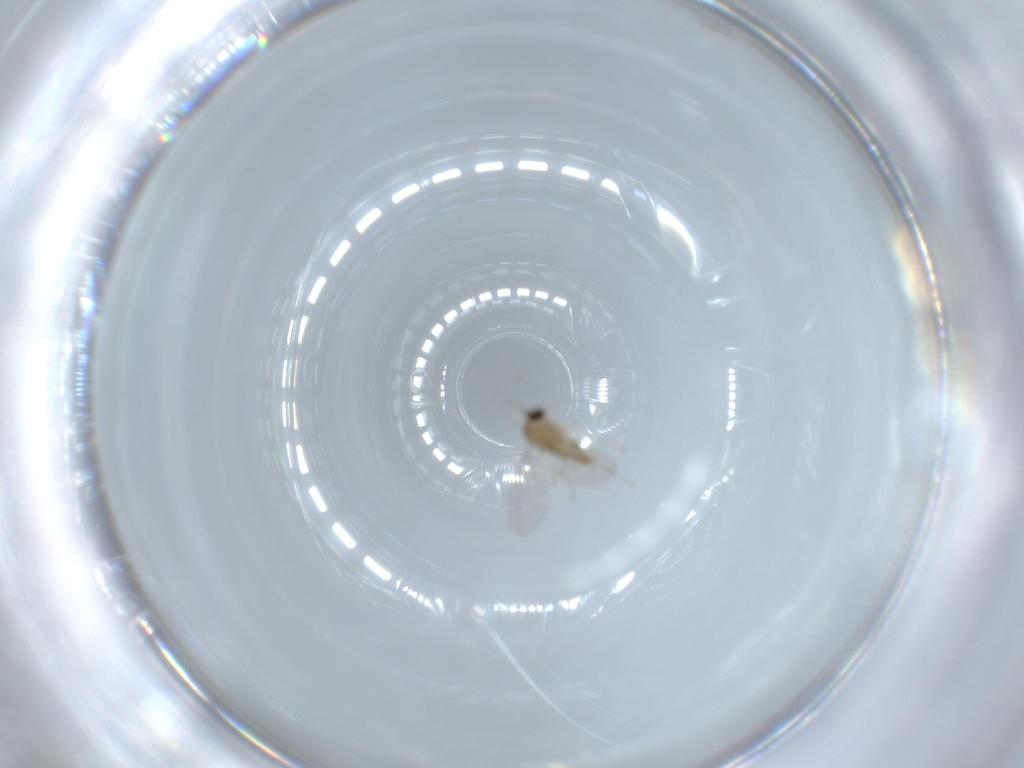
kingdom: Animalia
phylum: Arthropoda
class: Insecta
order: Diptera
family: Cecidomyiidae
